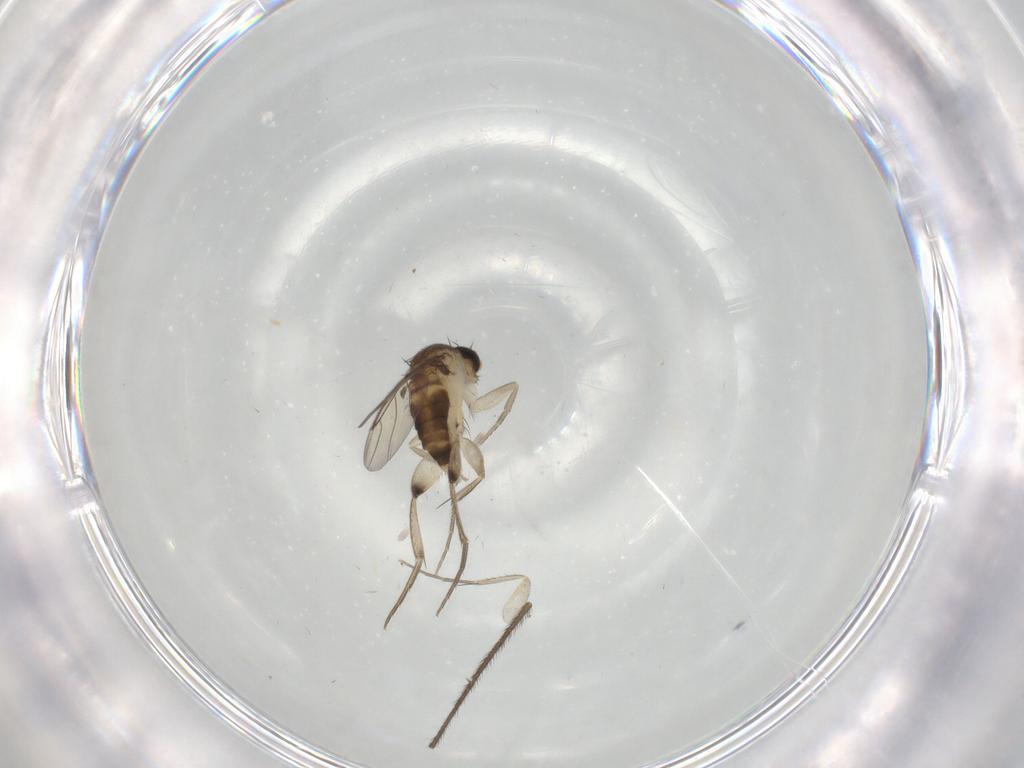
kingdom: Animalia
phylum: Arthropoda
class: Insecta
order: Diptera
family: Phoridae
